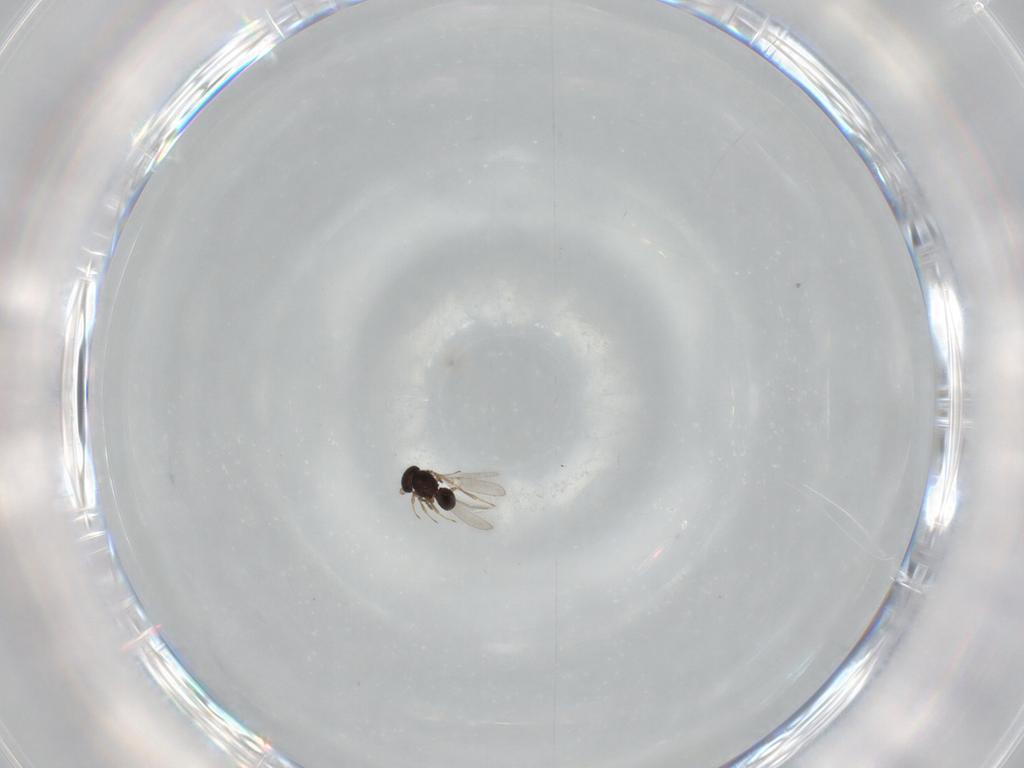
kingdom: Animalia
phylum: Arthropoda
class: Insecta
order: Hymenoptera
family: Scelionidae
